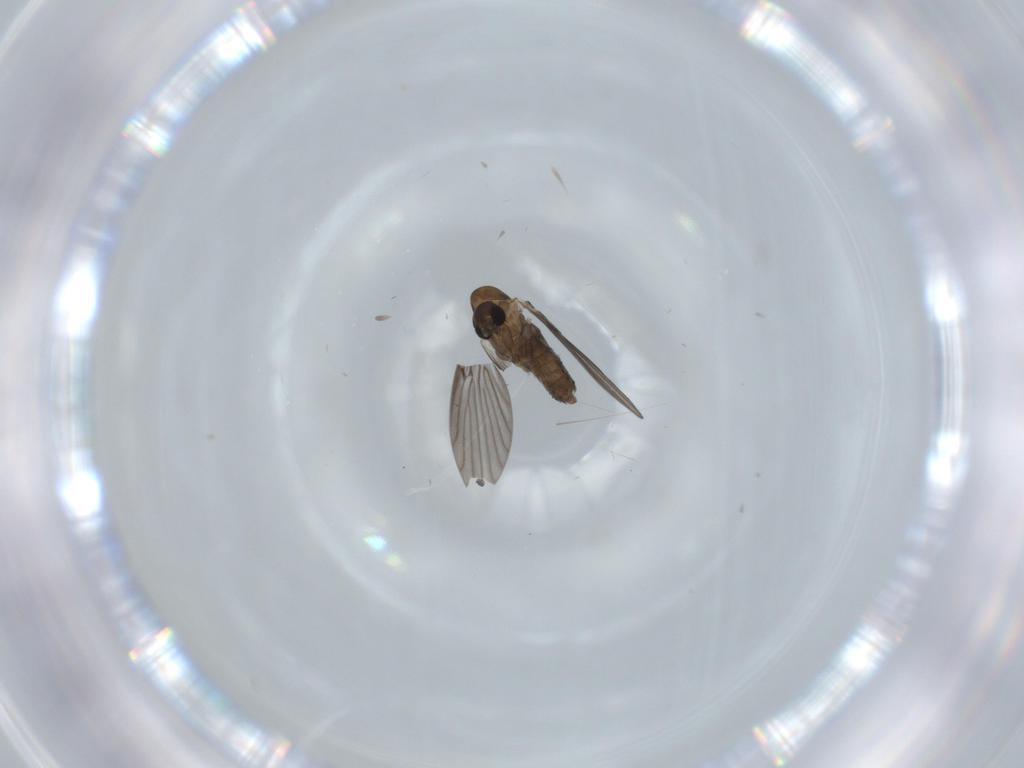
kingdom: Animalia
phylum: Arthropoda
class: Insecta
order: Diptera
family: Psychodidae
